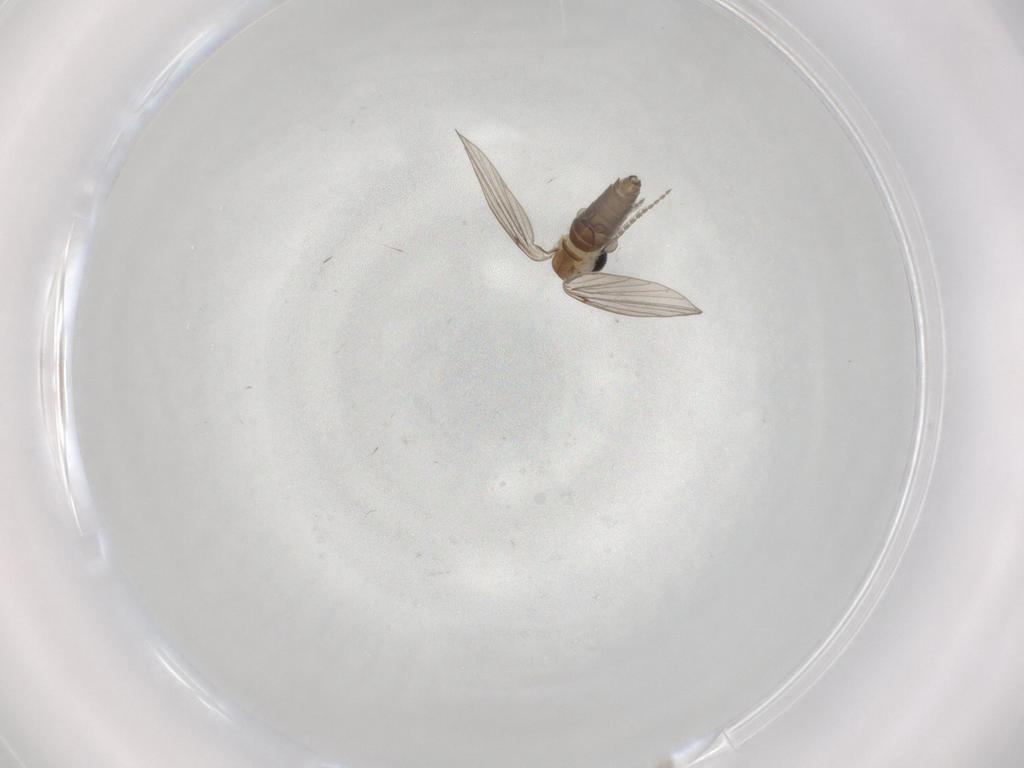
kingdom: Animalia
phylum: Arthropoda
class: Insecta
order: Diptera
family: Psychodidae
